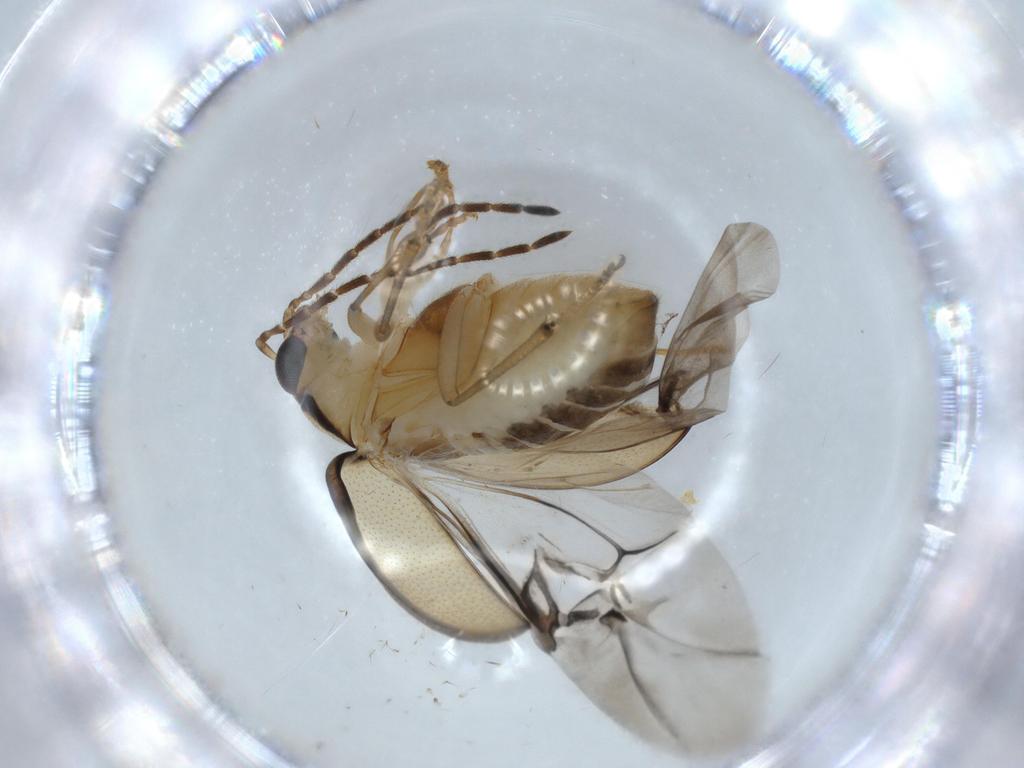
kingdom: Animalia
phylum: Arthropoda
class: Insecta
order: Coleoptera
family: Chrysomelidae
